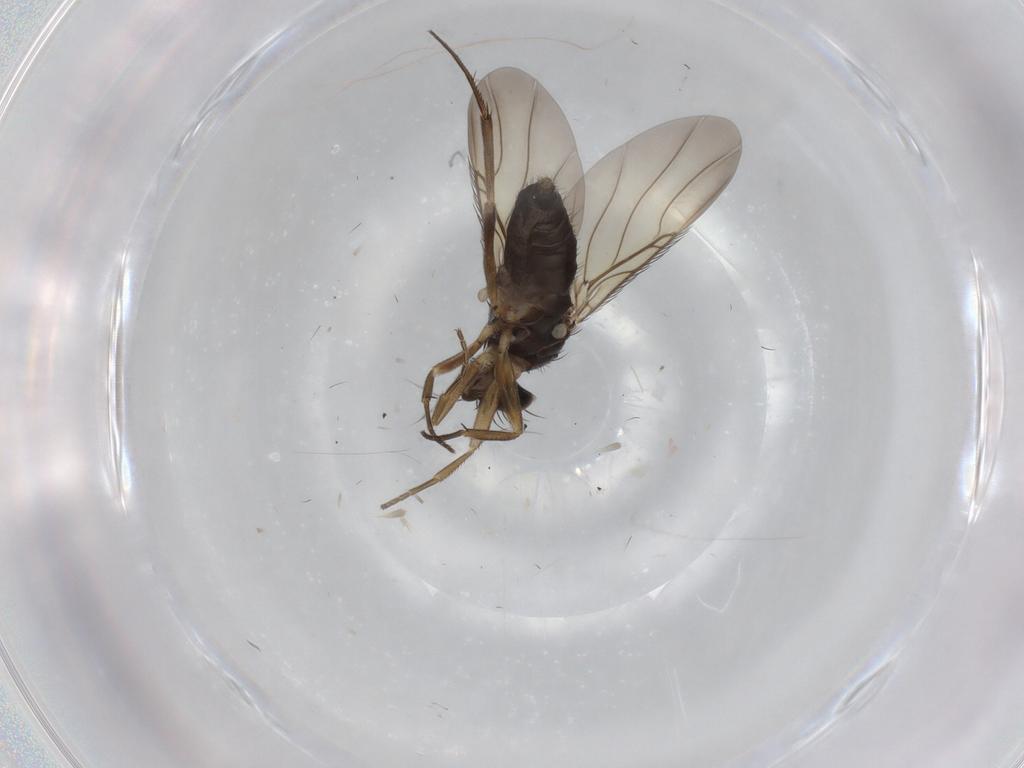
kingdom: Animalia
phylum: Arthropoda
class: Insecta
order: Diptera
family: Phoridae
